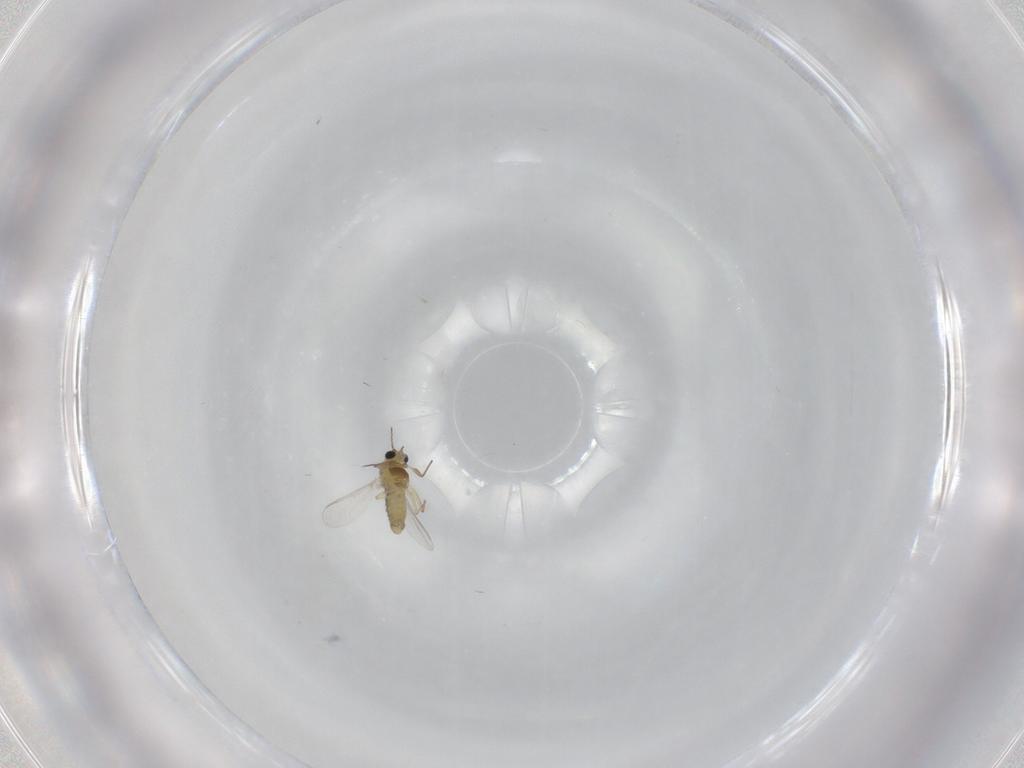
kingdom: Animalia
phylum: Arthropoda
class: Insecta
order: Diptera
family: Chironomidae
